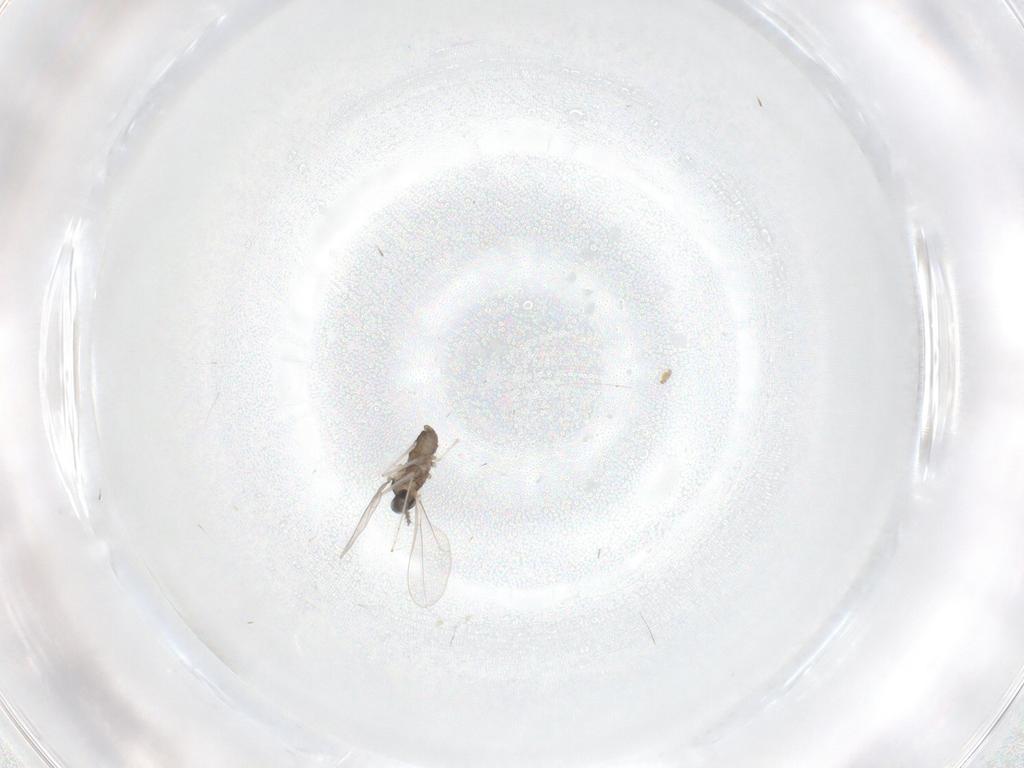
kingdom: Animalia
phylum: Arthropoda
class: Insecta
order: Diptera
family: Cecidomyiidae
